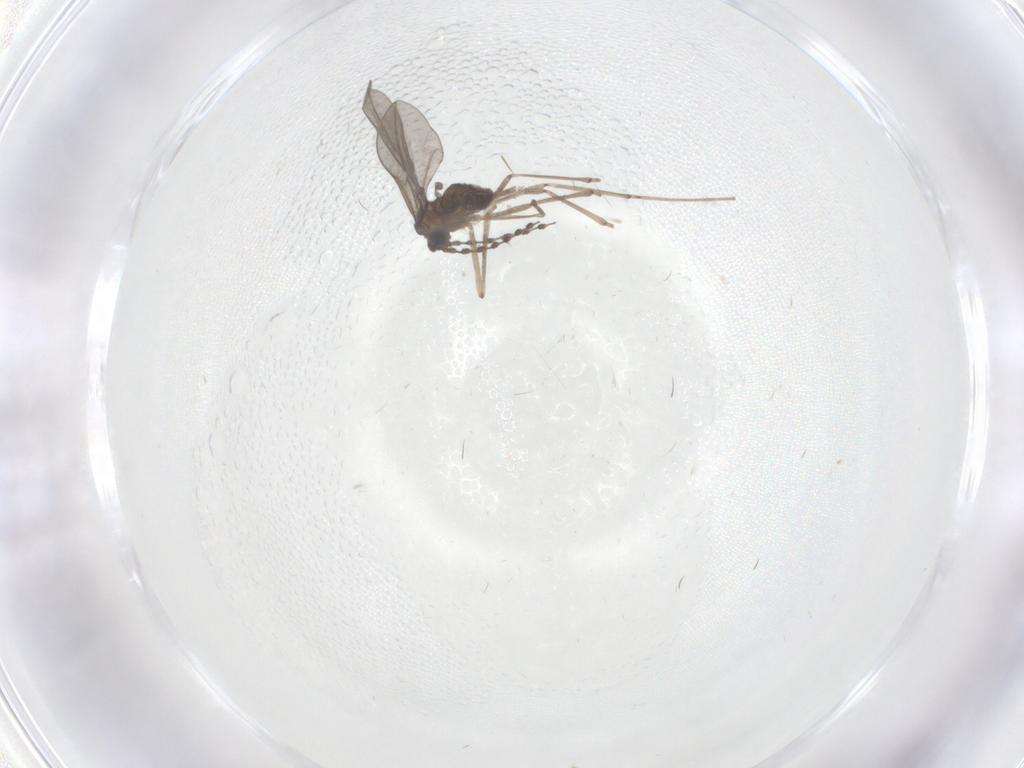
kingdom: Animalia
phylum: Arthropoda
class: Insecta
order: Diptera
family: Cecidomyiidae
